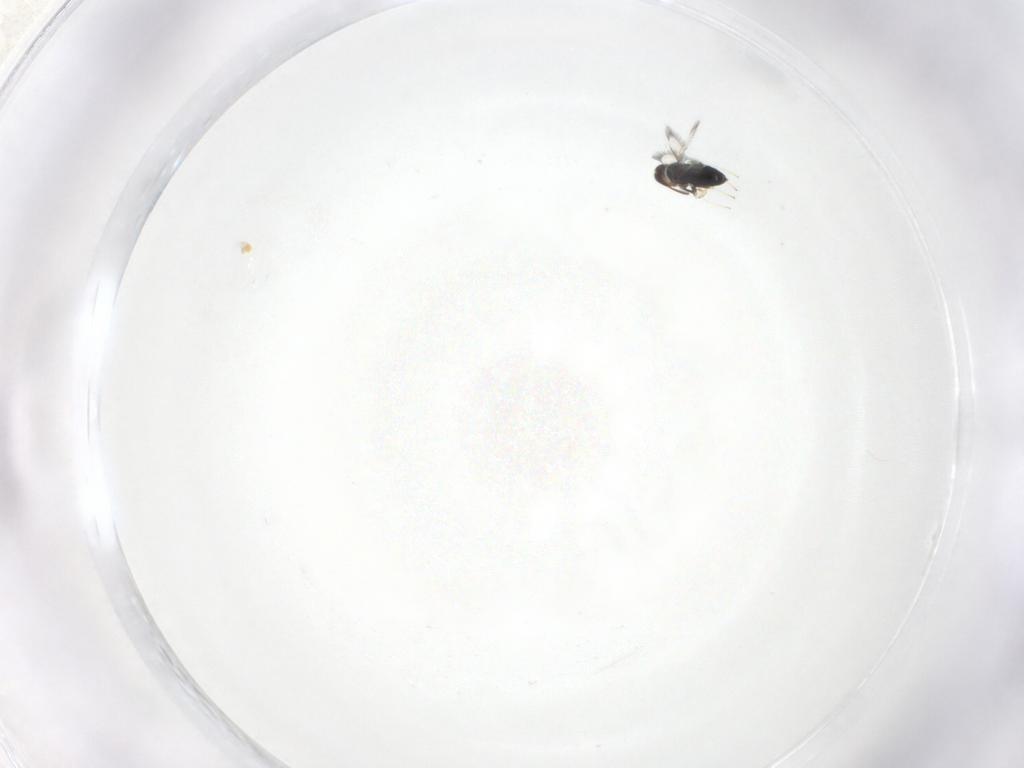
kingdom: Animalia
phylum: Arthropoda
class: Insecta
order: Hymenoptera
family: Signiphoridae
